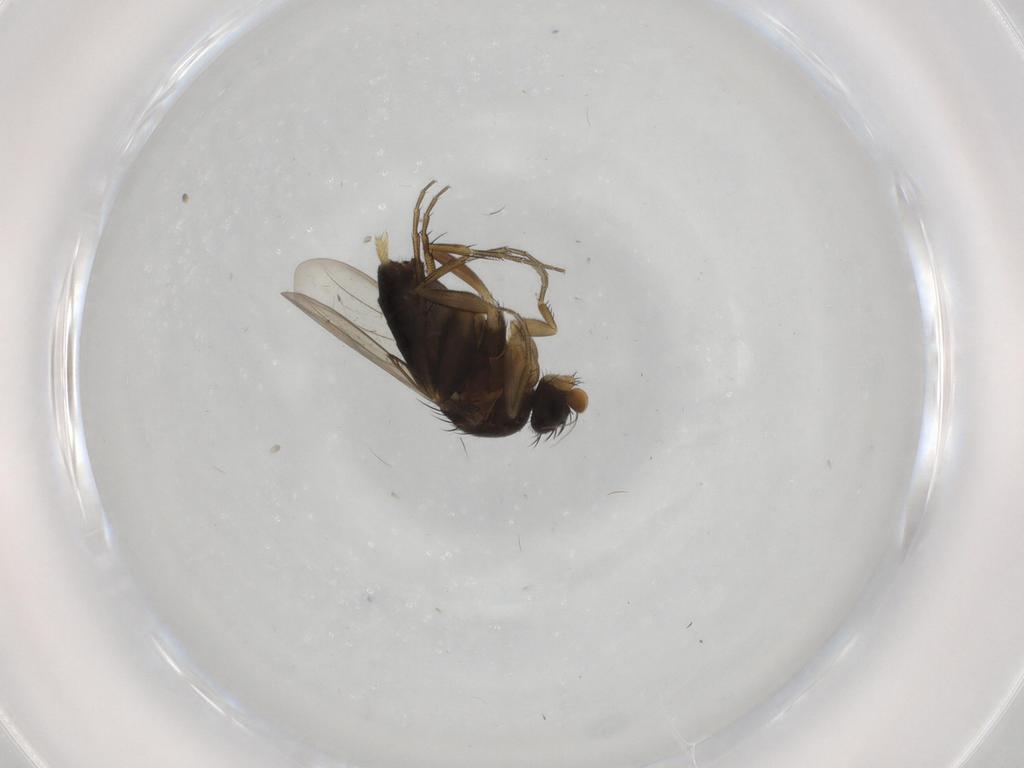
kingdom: Animalia
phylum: Arthropoda
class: Insecta
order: Diptera
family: Phoridae
